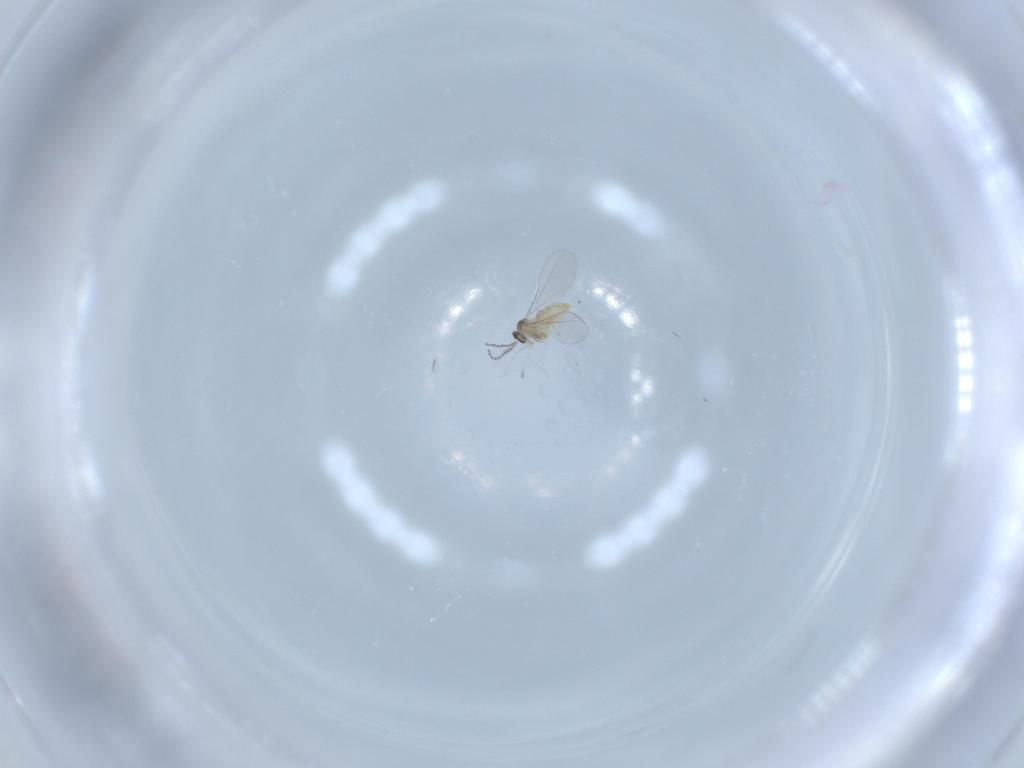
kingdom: Animalia
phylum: Arthropoda
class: Insecta
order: Diptera
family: Cecidomyiidae
